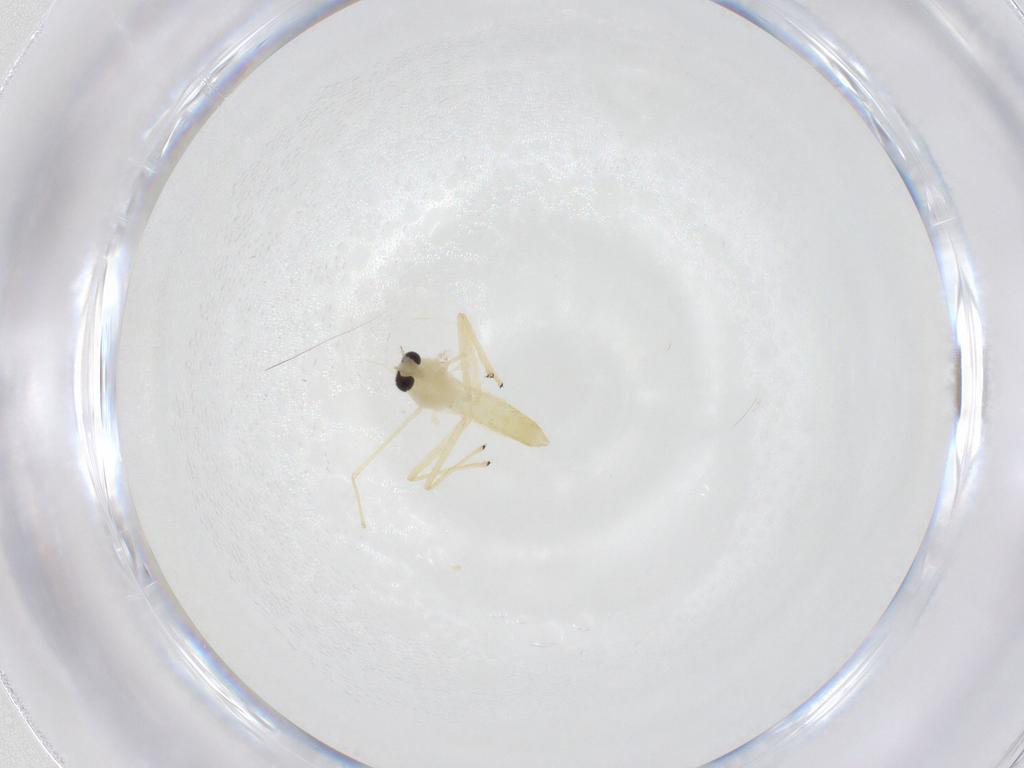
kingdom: Animalia
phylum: Arthropoda
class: Insecta
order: Diptera
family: Chironomidae
